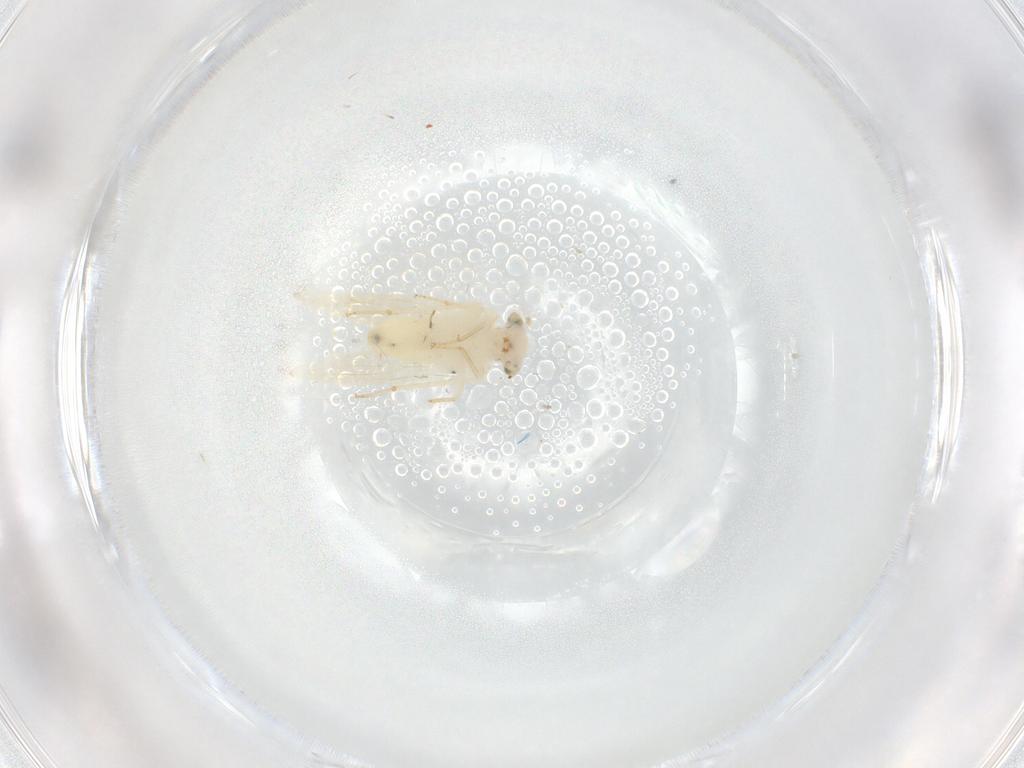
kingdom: Animalia
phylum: Arthropoda
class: Insecta
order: Psocodea
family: Lepidopsocidae
